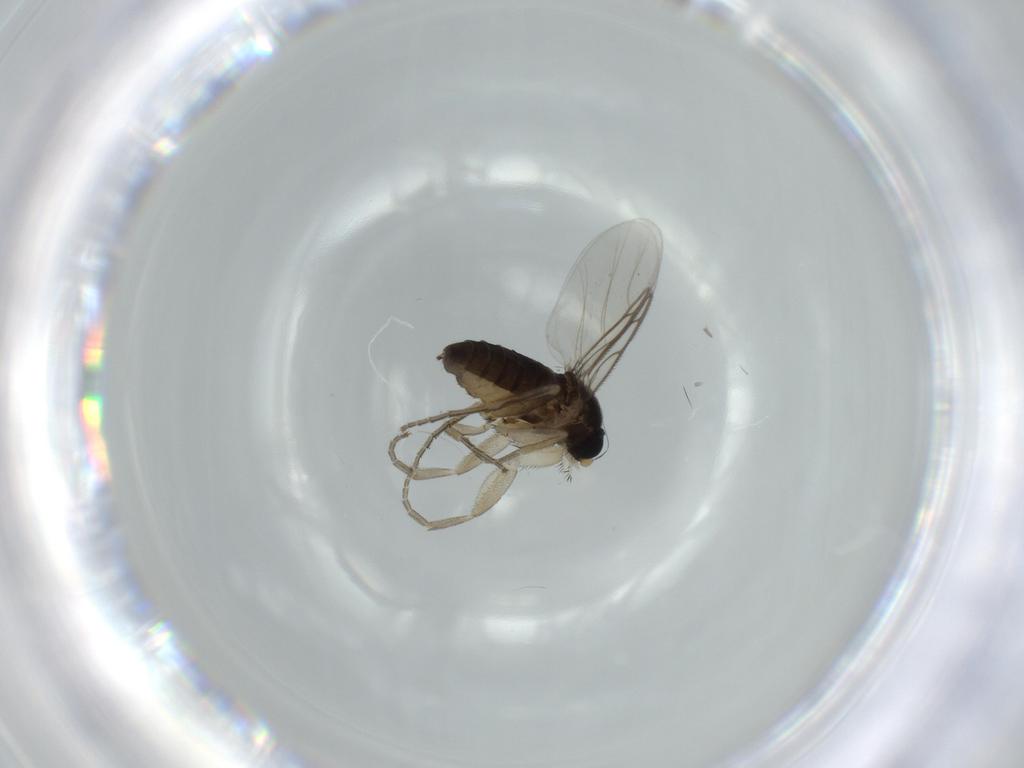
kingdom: Animalia
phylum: Arthropoda
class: Insecta
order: Diptera
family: Phoridae
